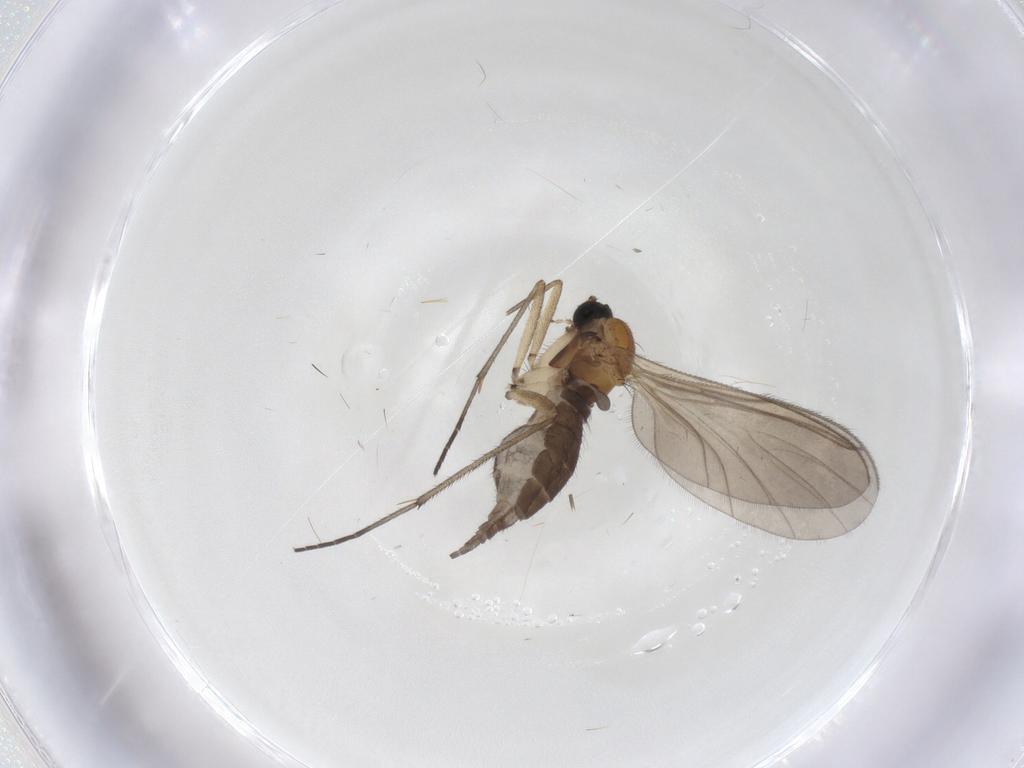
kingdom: Animalia
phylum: Arthropoda
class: Insecta
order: Diptera
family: Sciaridae
